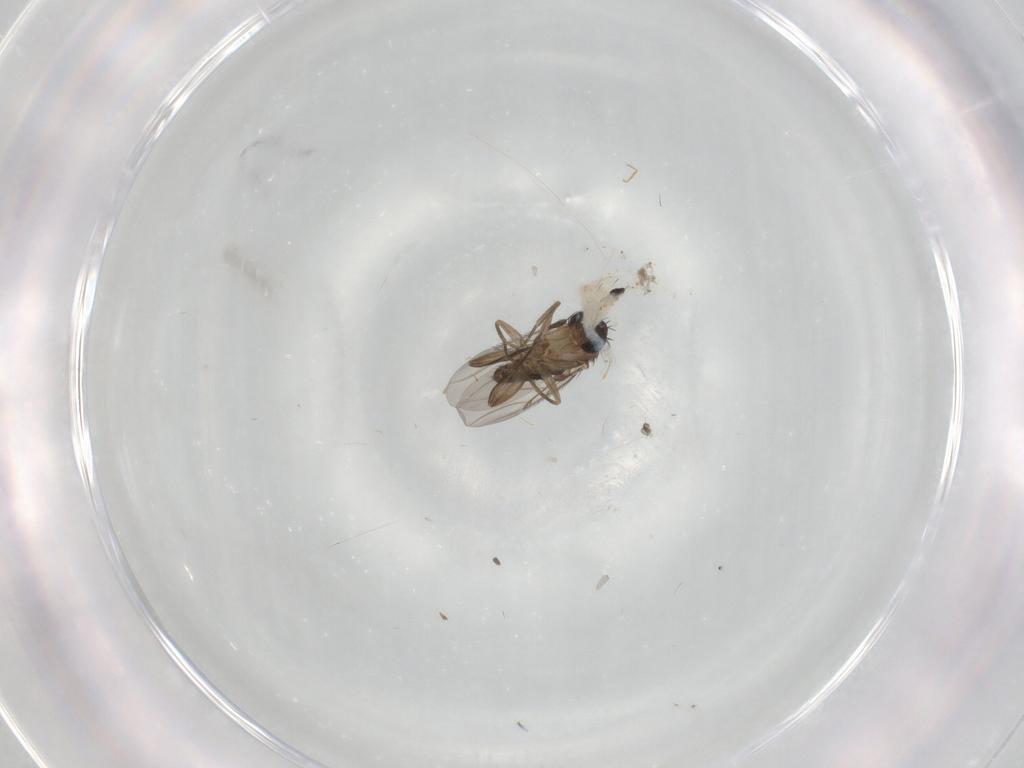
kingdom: Animalia
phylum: Arthropoda
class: Insecta
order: Diptera
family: Phoridae
